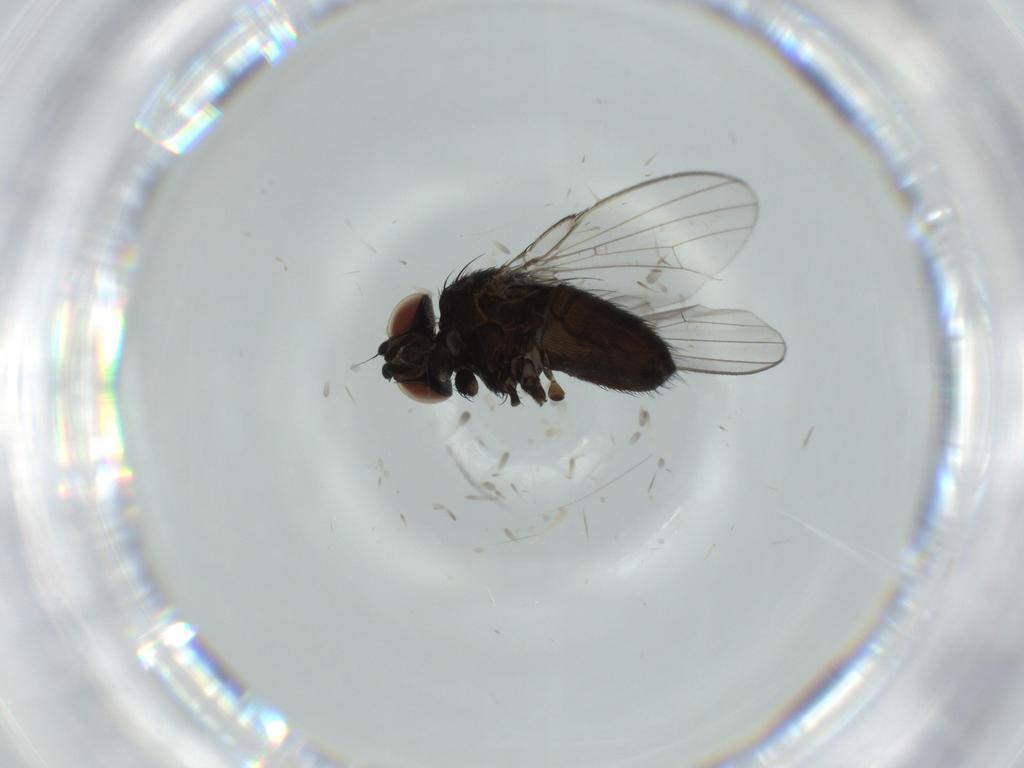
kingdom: Animalia
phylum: Arthropoda
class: Insecta
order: Diptera
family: Milichiidae
